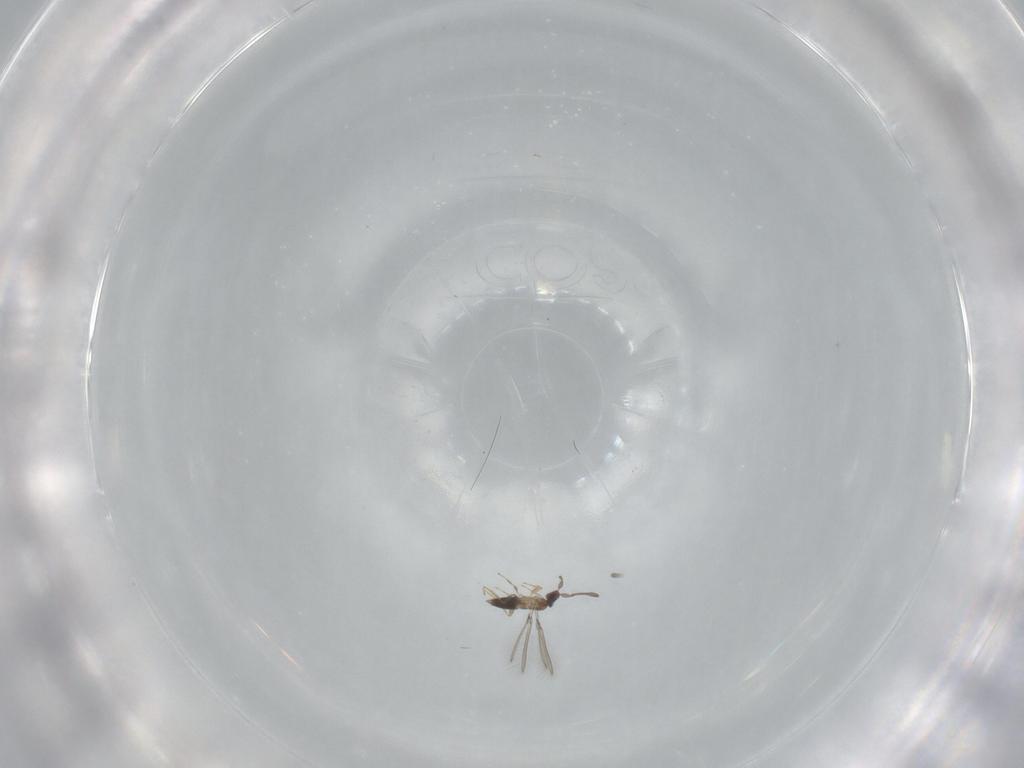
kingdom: Animalia
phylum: Arthropoda
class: Insecta
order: Hymenoptera
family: Mymaridae
